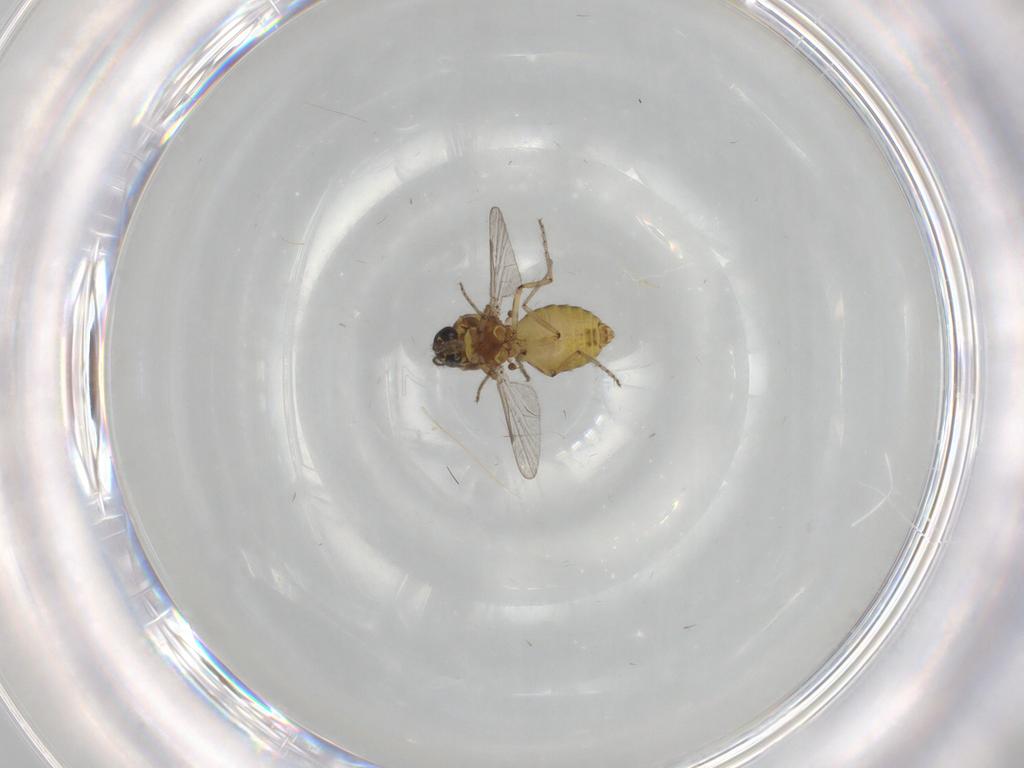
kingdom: Animalia
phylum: Arthropoda
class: Insecta
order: Diptera
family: Ceratopogonidae
